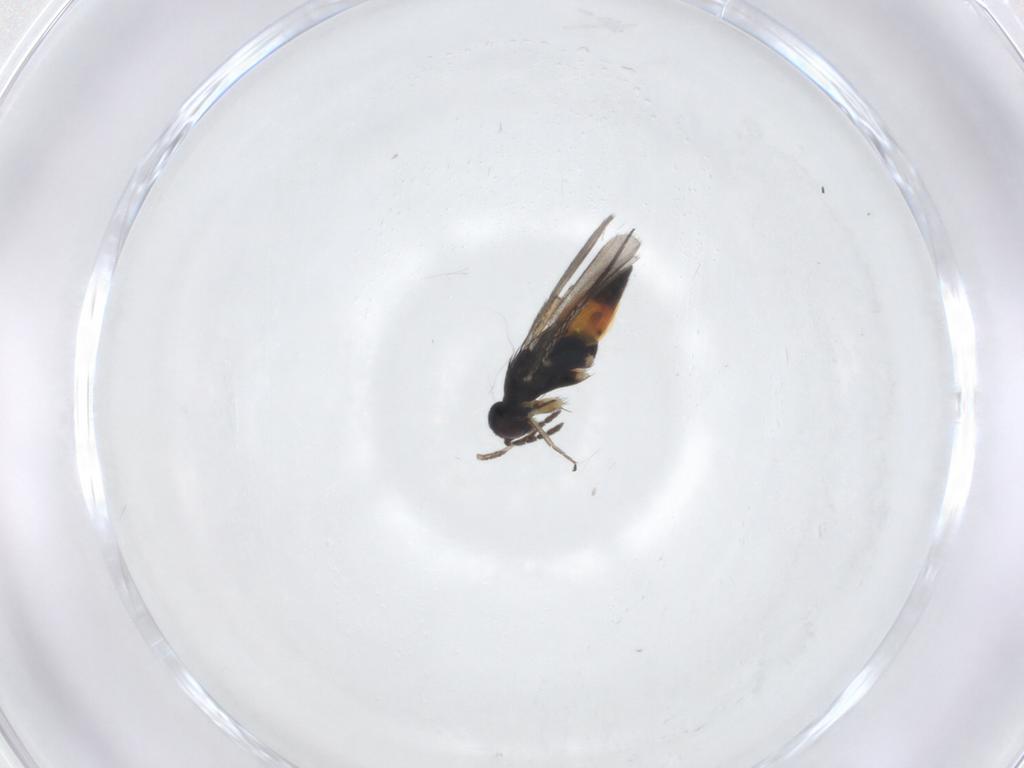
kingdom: Animalia
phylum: Arthropoda
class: Insecta
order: Hymenoptera
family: Eulophidae
